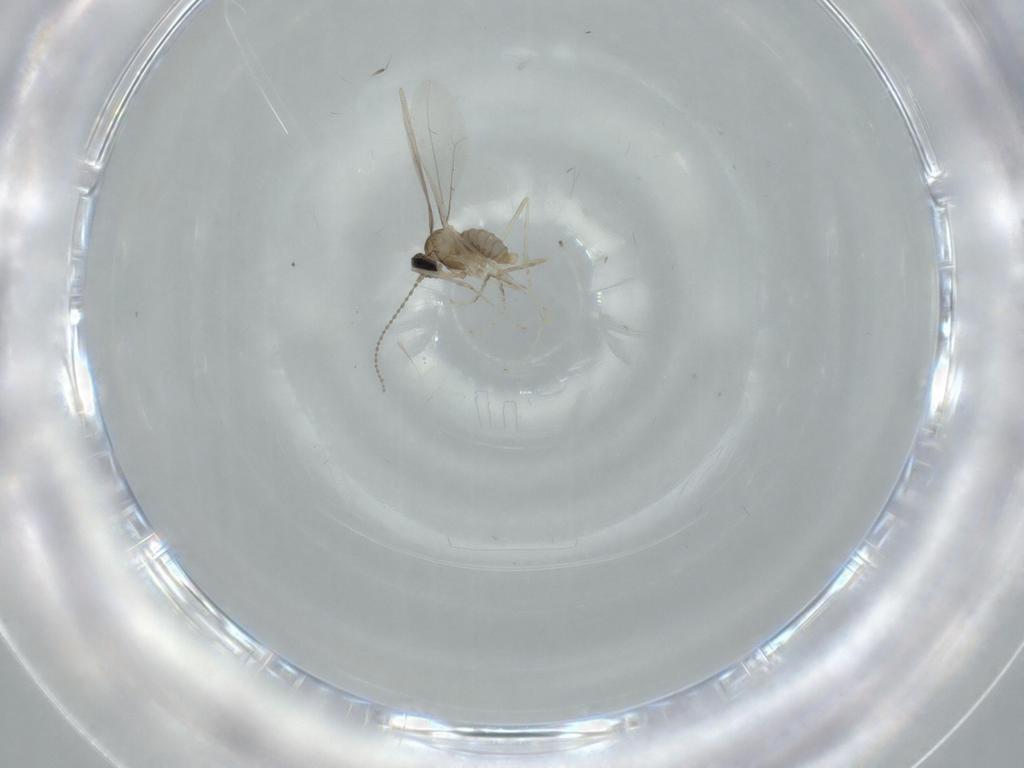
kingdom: Animalia
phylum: Arthropoda
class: Insecta
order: Diptera
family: Cecidomyiidae
